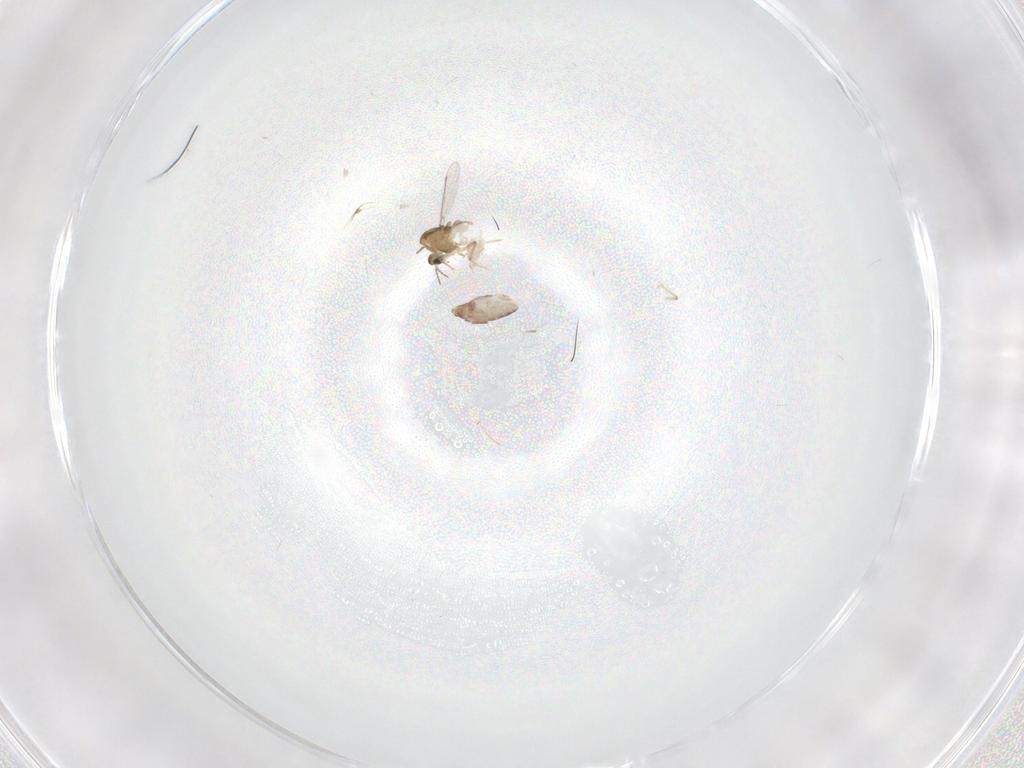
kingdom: Animalia
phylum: Arthropoda
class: Insecta
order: Diptera
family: Chironomidae
